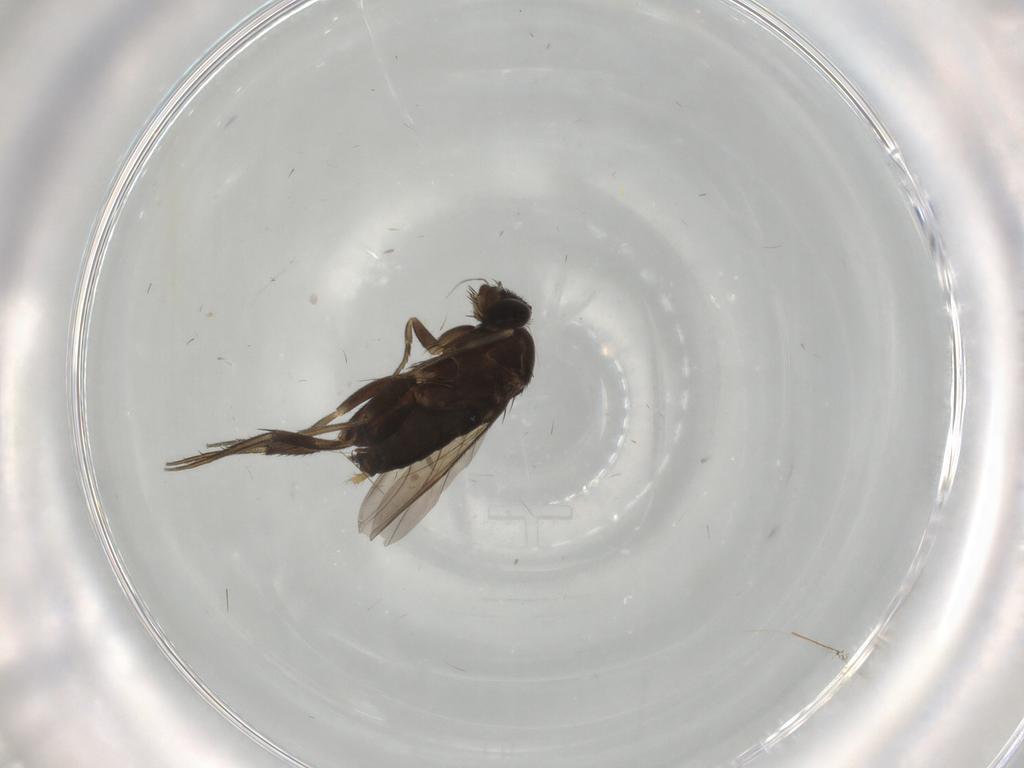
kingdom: Animalia
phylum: Arthropoda
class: Insecta
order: Diptera
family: Phoridae
